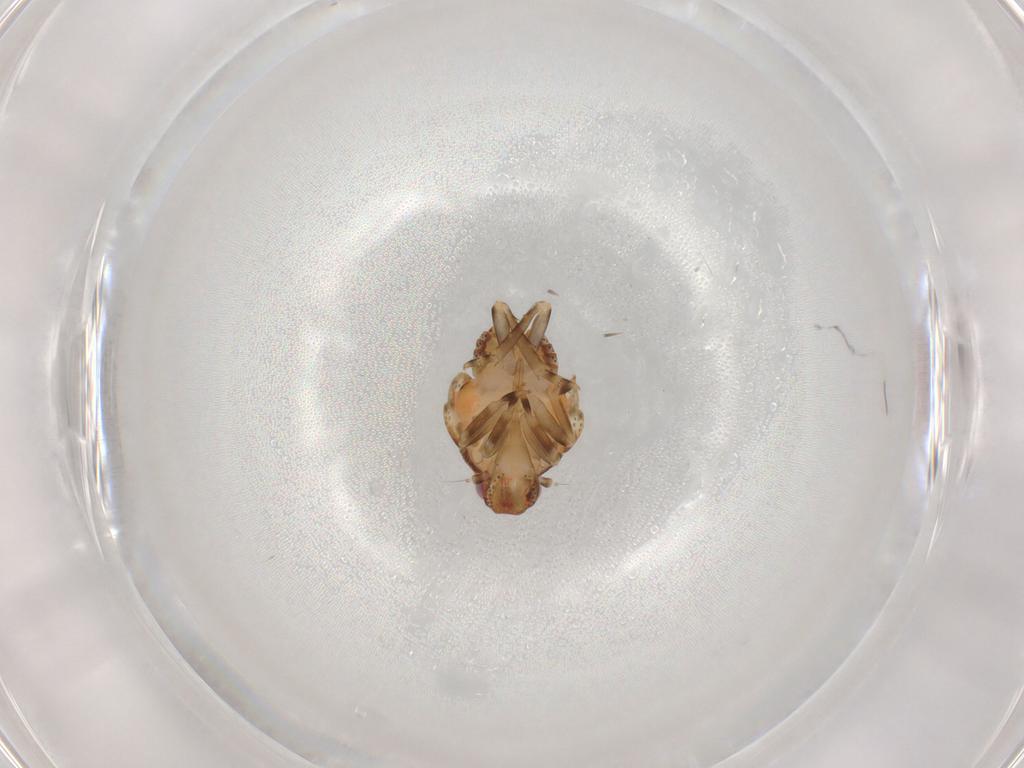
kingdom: Animalia
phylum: Arthropoda
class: Insecta
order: Hemiptera
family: Flatidae
